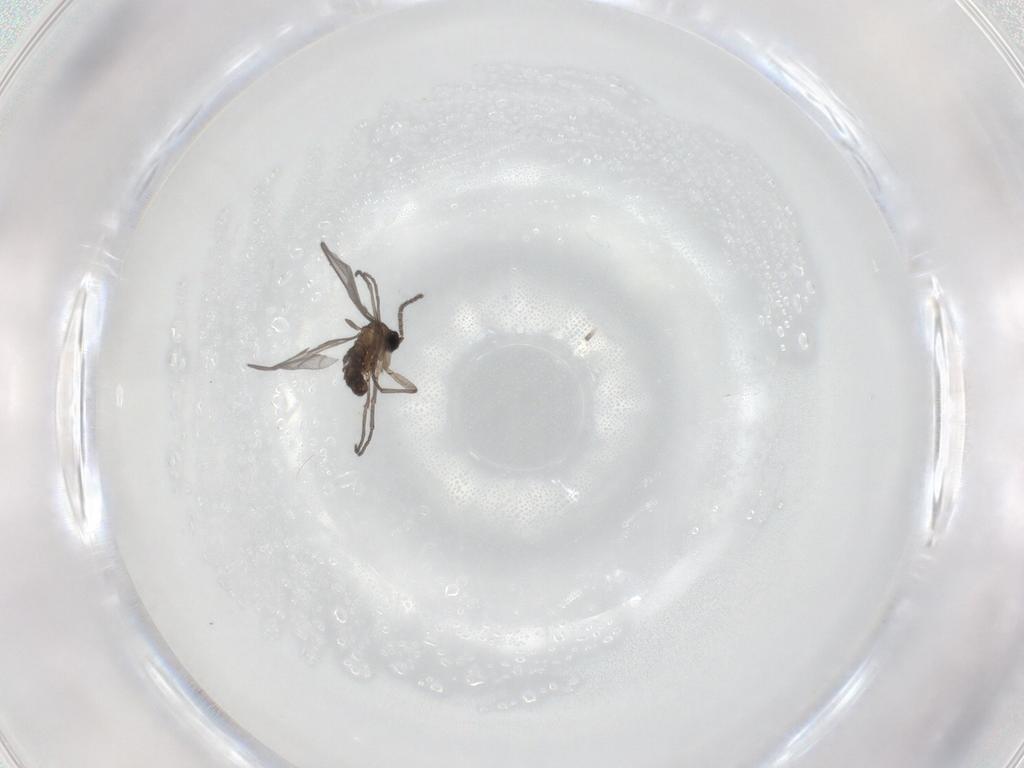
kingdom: Animalia
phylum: Arthropoda
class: Insecta
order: Diptera
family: Sciaridae
